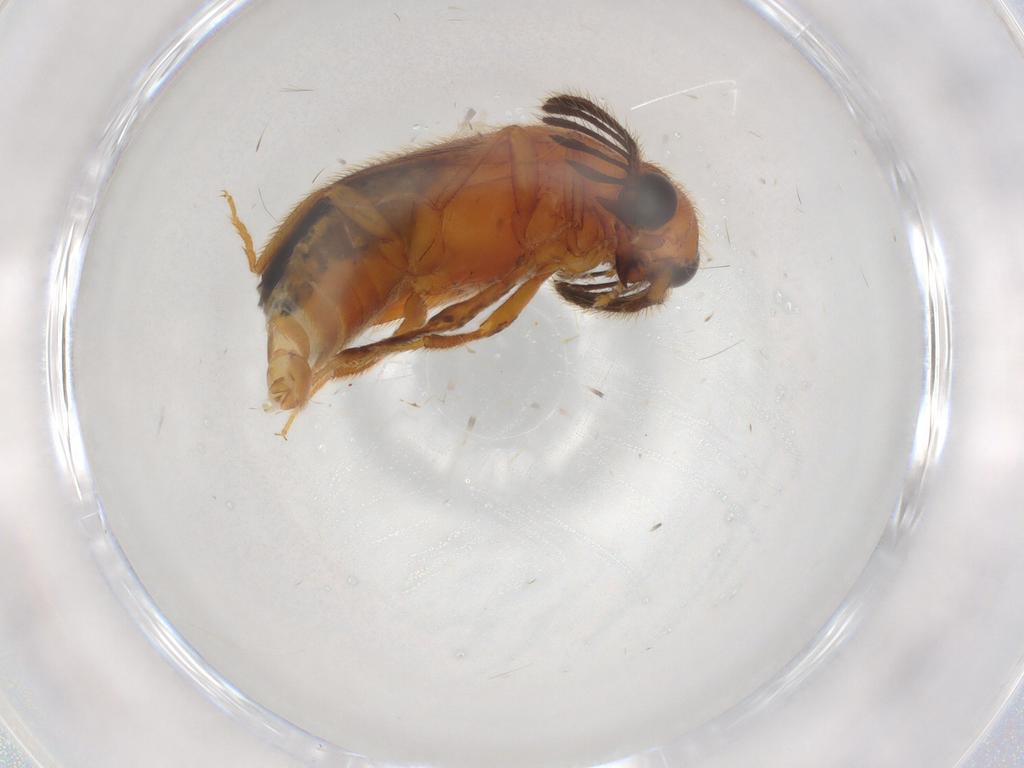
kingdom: Animalia
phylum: Arthropoda
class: Insecta
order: Coleoptera
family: Elateridae
